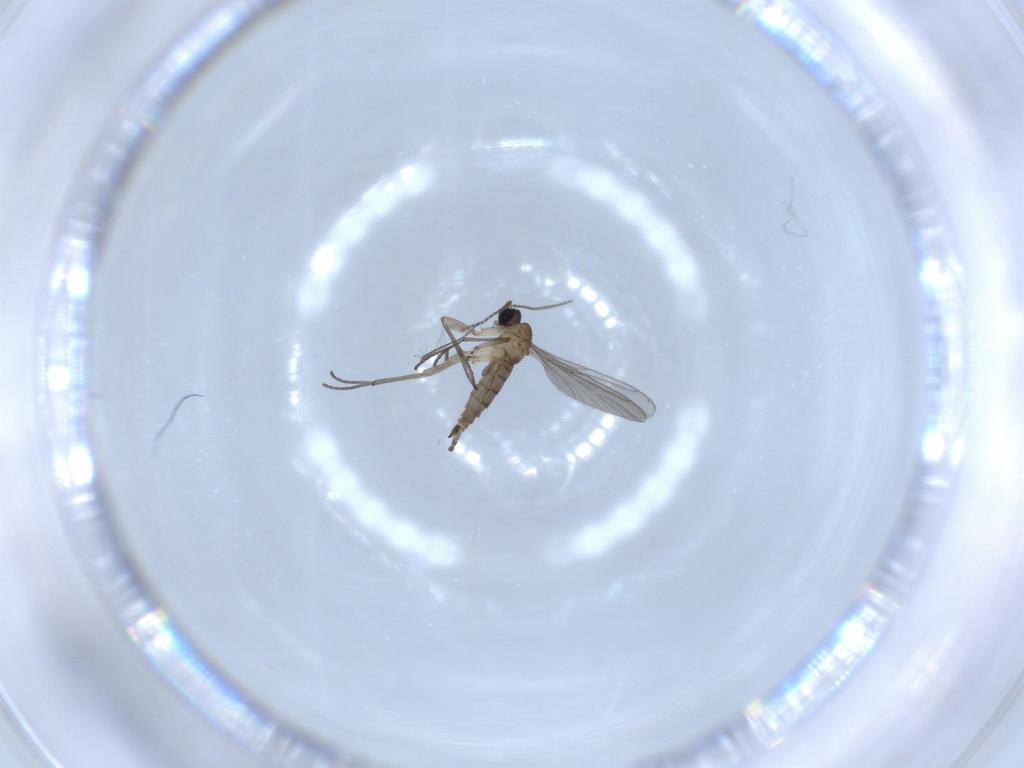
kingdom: Animalia
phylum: Arthropoda
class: Insecta
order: Diptera
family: Sciaridae
